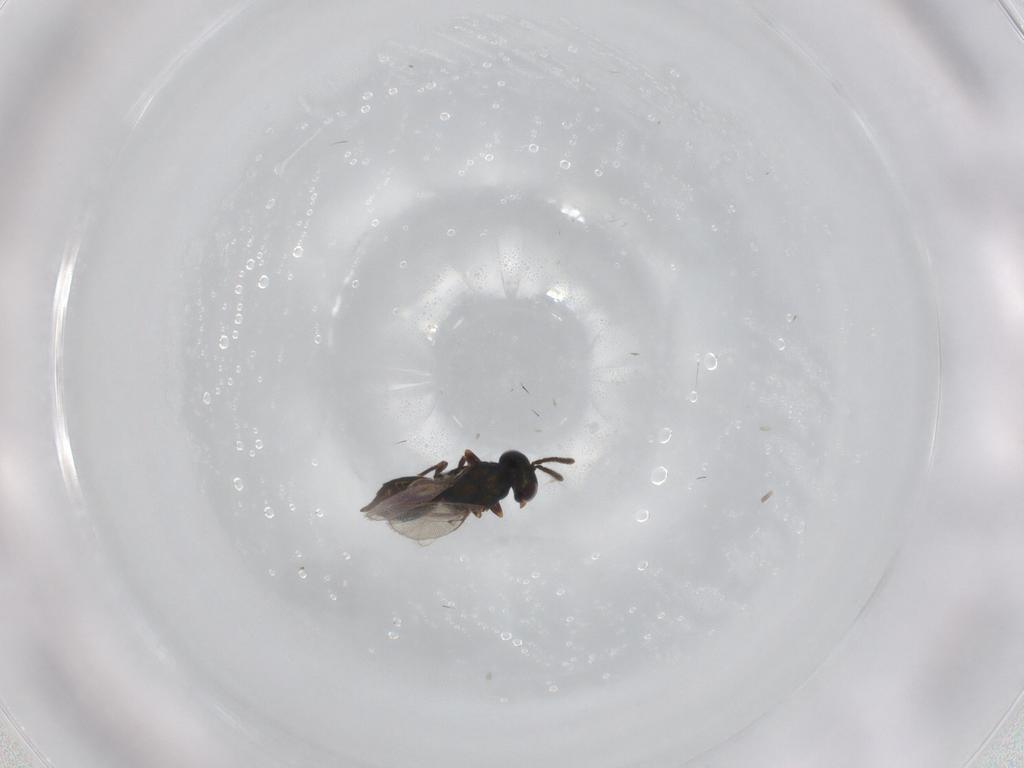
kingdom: Animalia
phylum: Arthropoda
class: Insecta
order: Hymenoptera
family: Pteromalidae
